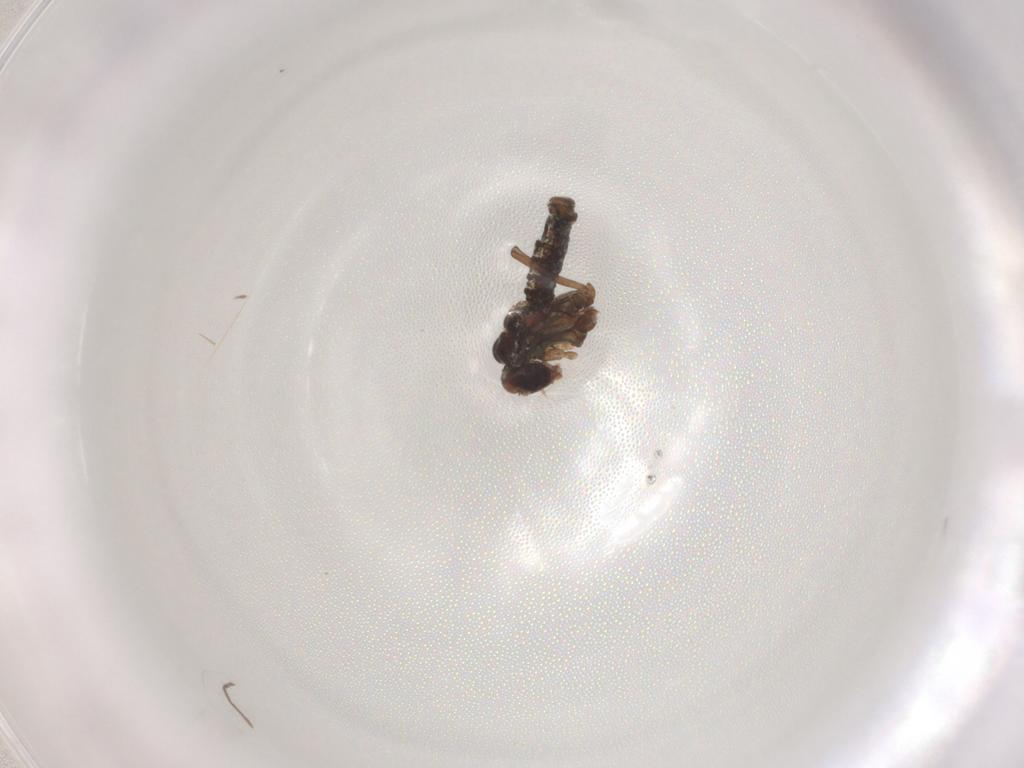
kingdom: Animalia
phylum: Arthropoda
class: Insecta
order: Diptera
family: Chironomidae
